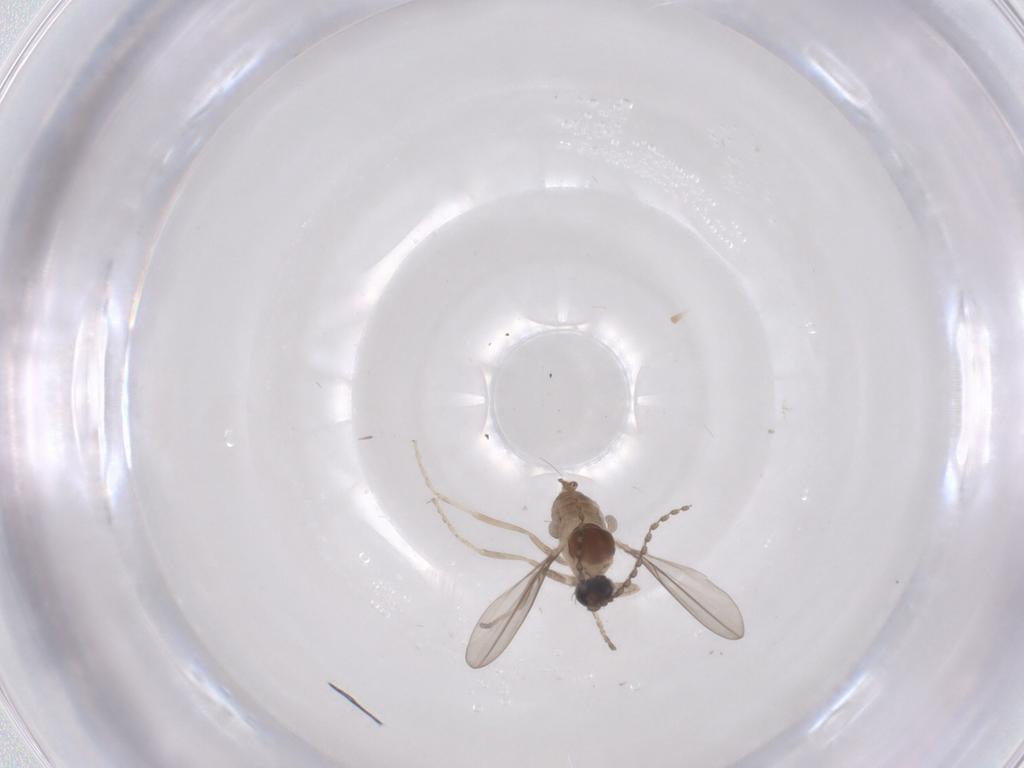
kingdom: Animalia
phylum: Arthropoda
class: Insecta
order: Diptera
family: Cecidomyiidae
